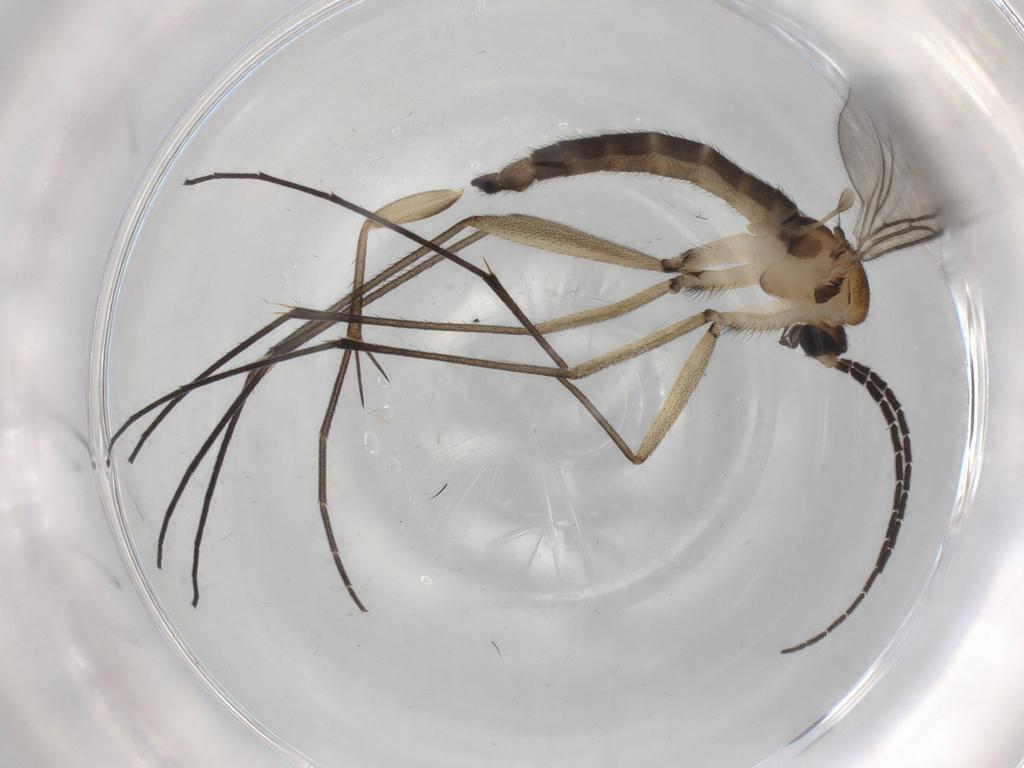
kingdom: Animalia
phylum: Arthropoda
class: Insecta
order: Diptera
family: Sciaridae
